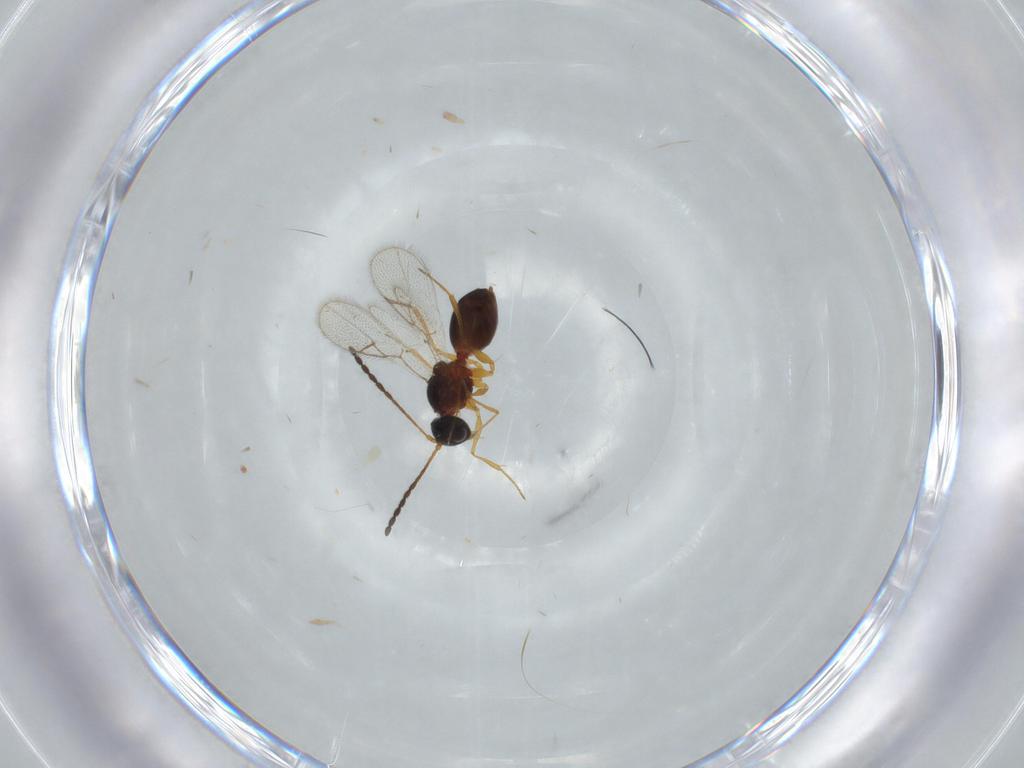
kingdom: Animalia
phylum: Arthropoda
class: Insecta
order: Hymenoptera
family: Figitidae
